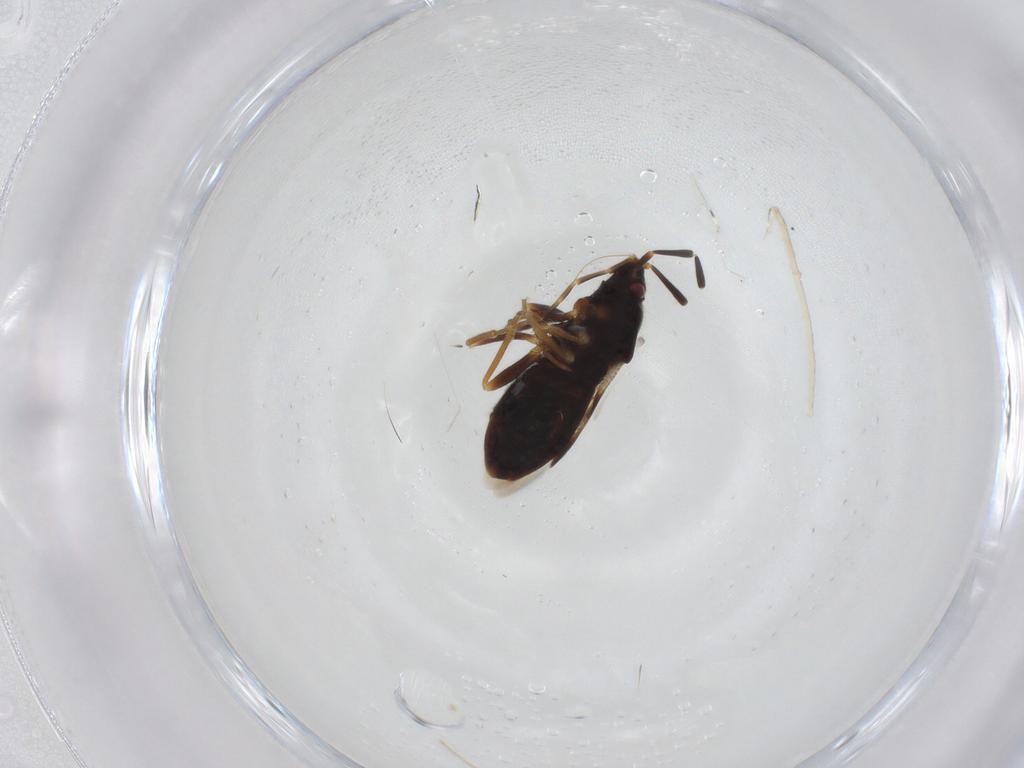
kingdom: Animalia
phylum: Arthropoda
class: Insecta
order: Hemiptera
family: Rhyparochromidae
